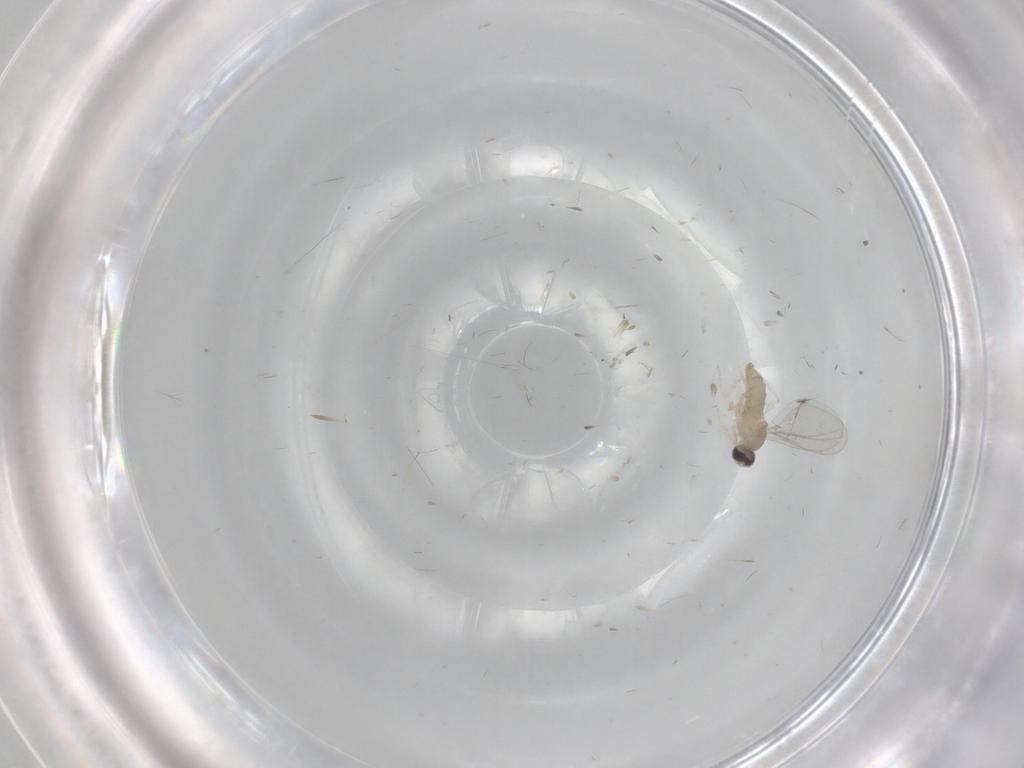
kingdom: Animalia
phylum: Arthropoda
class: Insecta
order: Diptera
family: Cecidomyiidae
